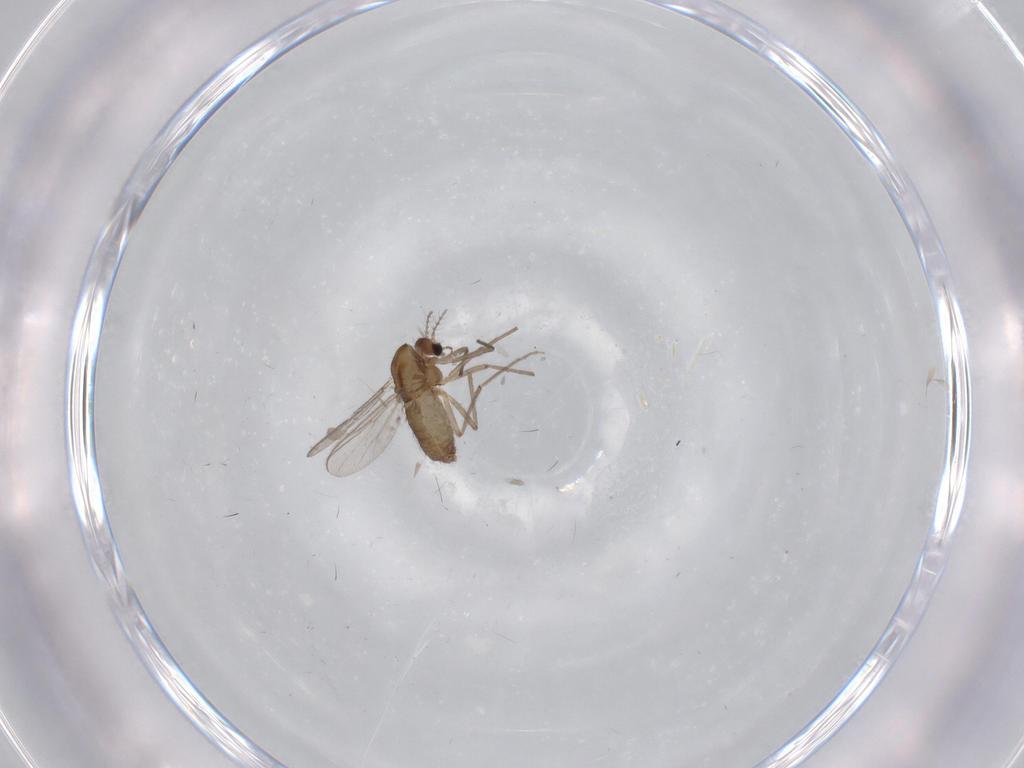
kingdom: Animalia
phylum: Arthropoda
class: Insecta
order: Diptera
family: Chironomidae
